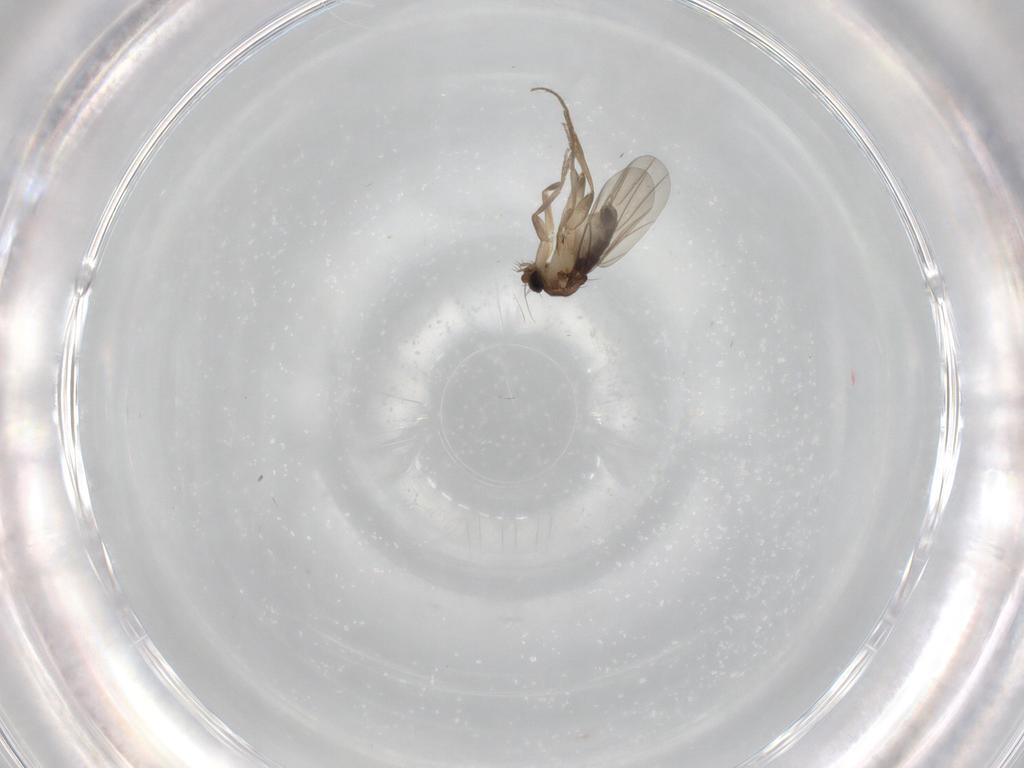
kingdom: Animalia
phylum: Arthropoda
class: Insecta
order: Diptera
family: Phoridae
